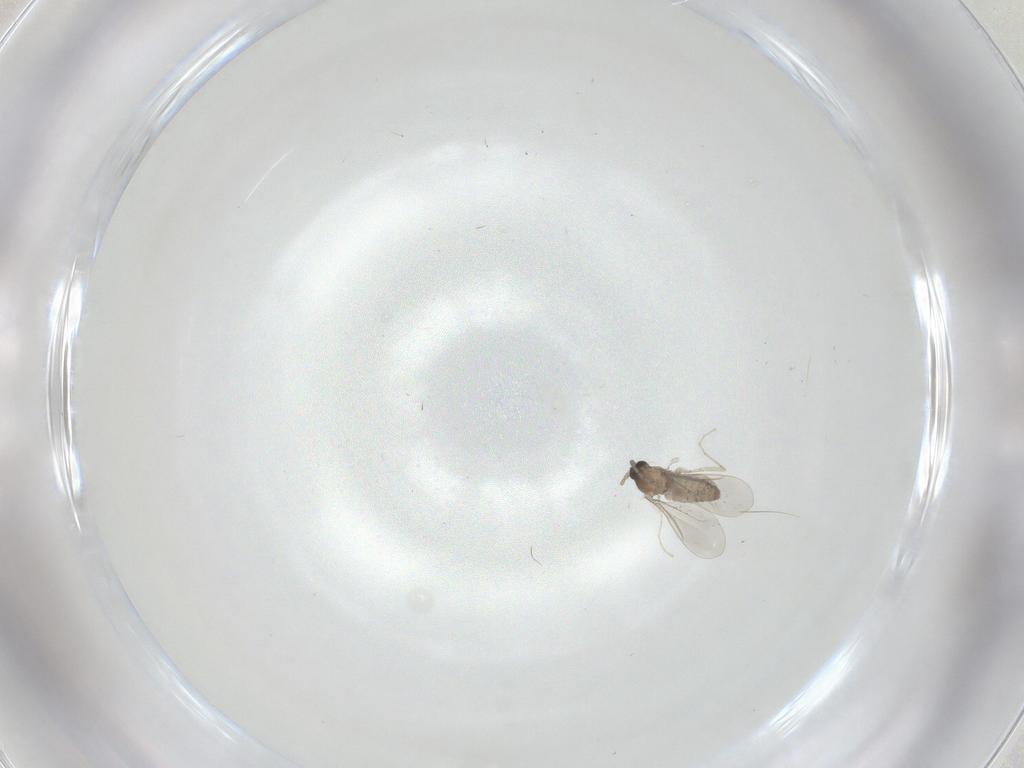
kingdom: Animalia
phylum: Arthropoda
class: Insecta
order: Diptera
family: Cecidomyiidae
